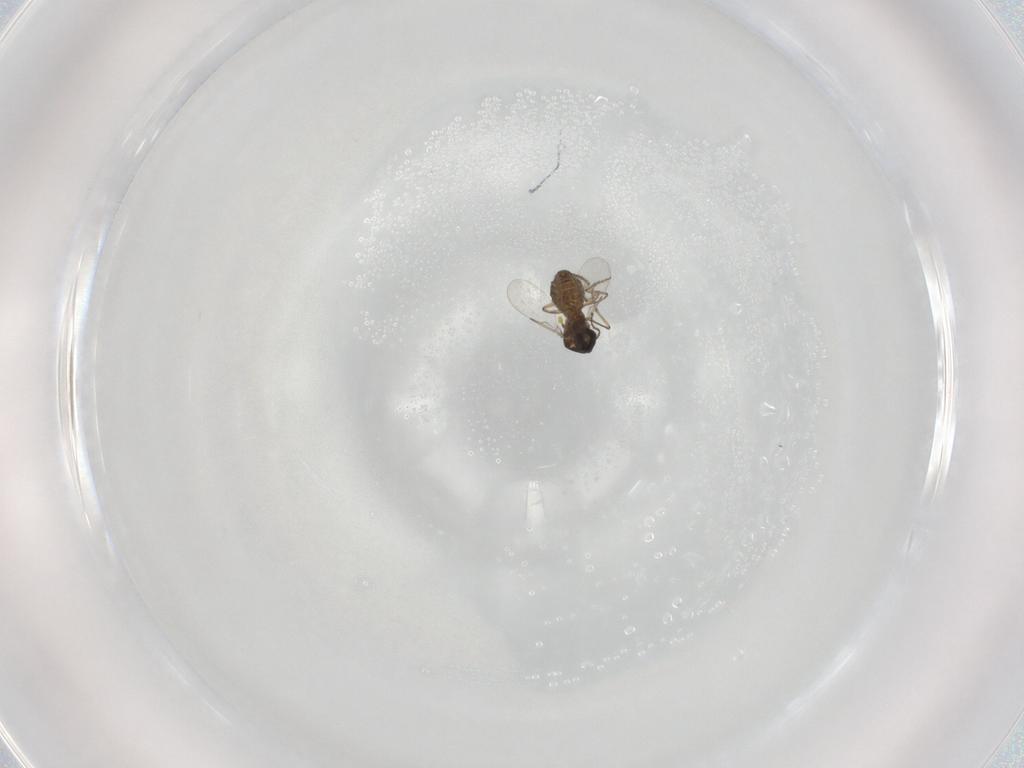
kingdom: Animalia
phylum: Arthropoda
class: Insecta
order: Diptera
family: Ceratopogonidae
